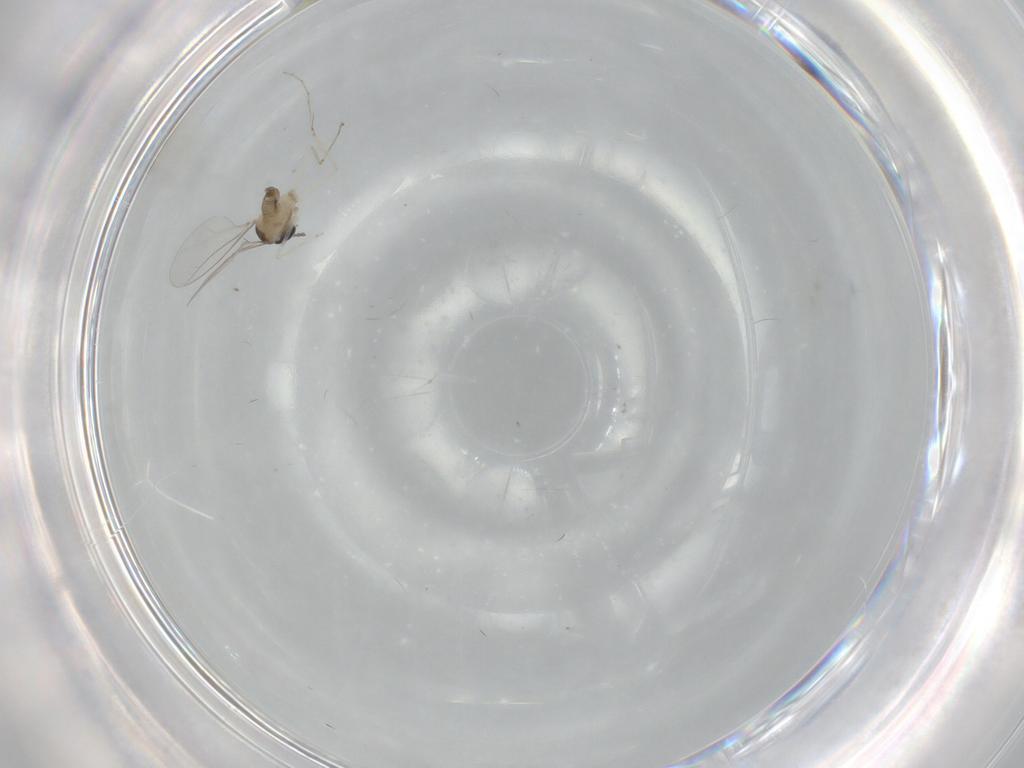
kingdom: Animalia
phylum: Arthropoda
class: Insecta
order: Diptera
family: Cecidomyiidae
